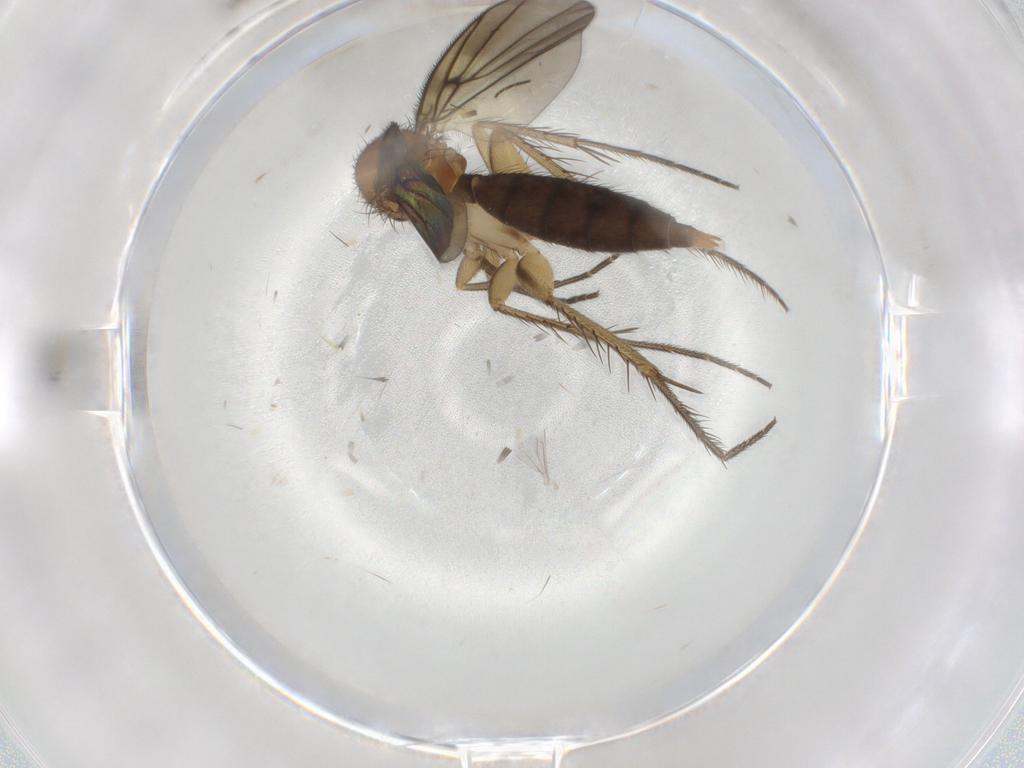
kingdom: Animalia
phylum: Arthropoda
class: Insecta
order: Diptera
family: Empididae
